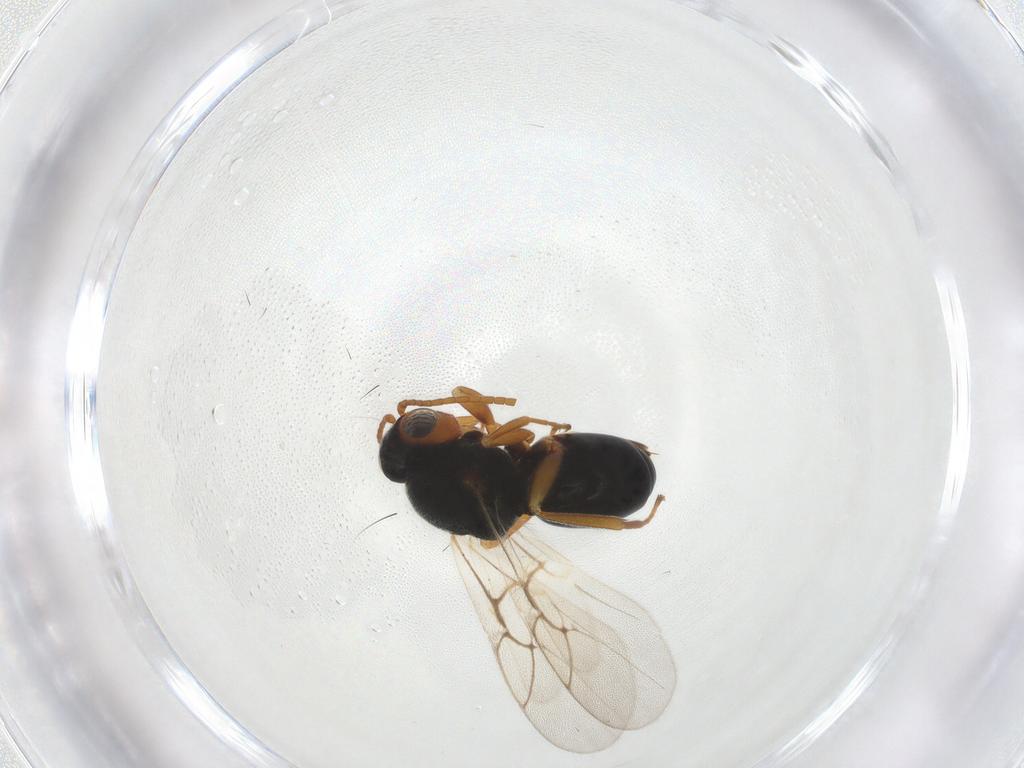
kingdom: Animalia
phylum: Arthropoda
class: Insecta
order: Hymenoptera
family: Cynipidae
